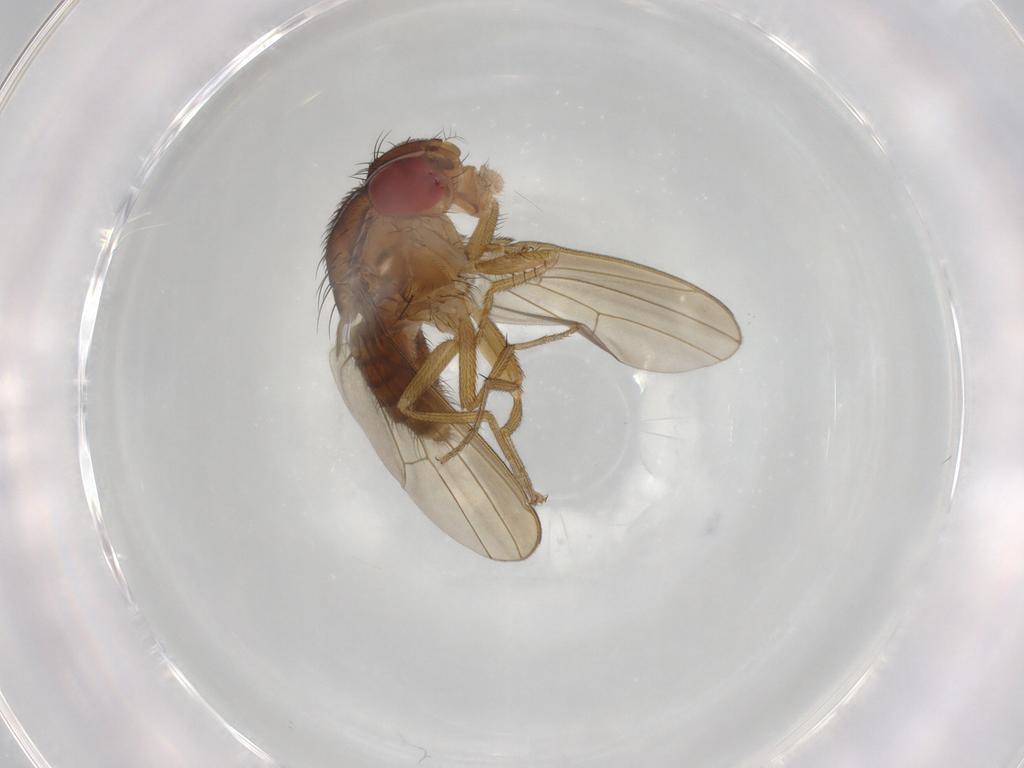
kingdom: Animalia
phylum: Arthropoda
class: Insecta
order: Diptera
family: Drosophilidae
